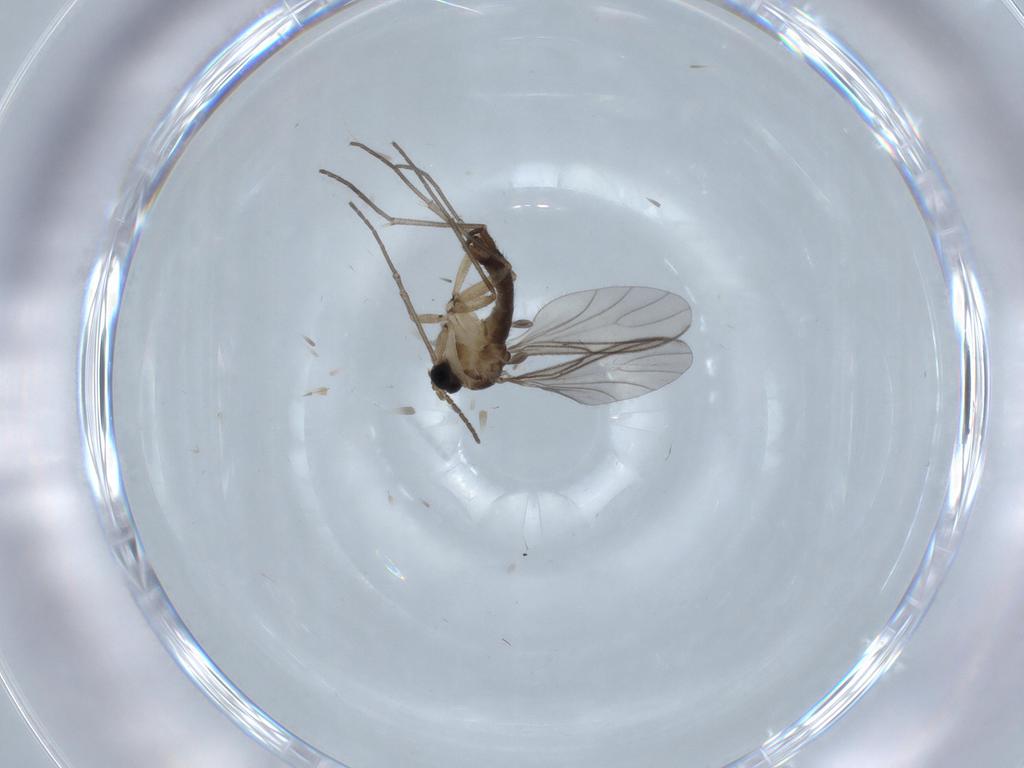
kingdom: Animalia
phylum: Arthropoda
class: Insecta
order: Diptera
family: Sciaridae
